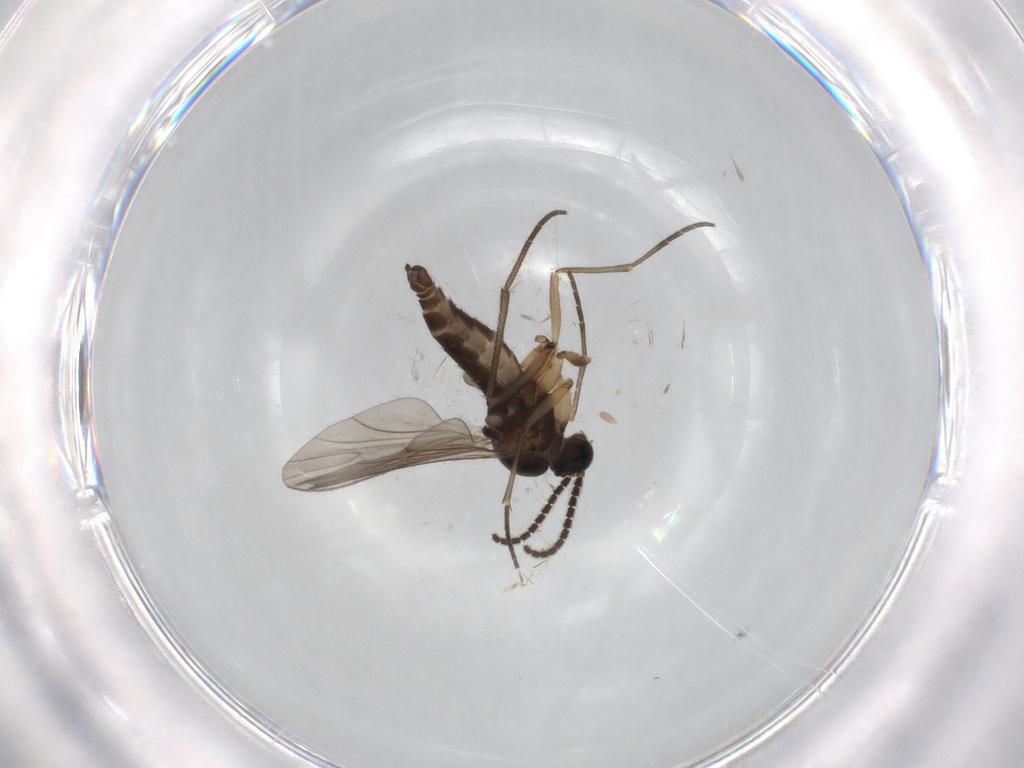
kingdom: Animalia
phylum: Arthropoda
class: Insecta
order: Diptera
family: Sciaridae
